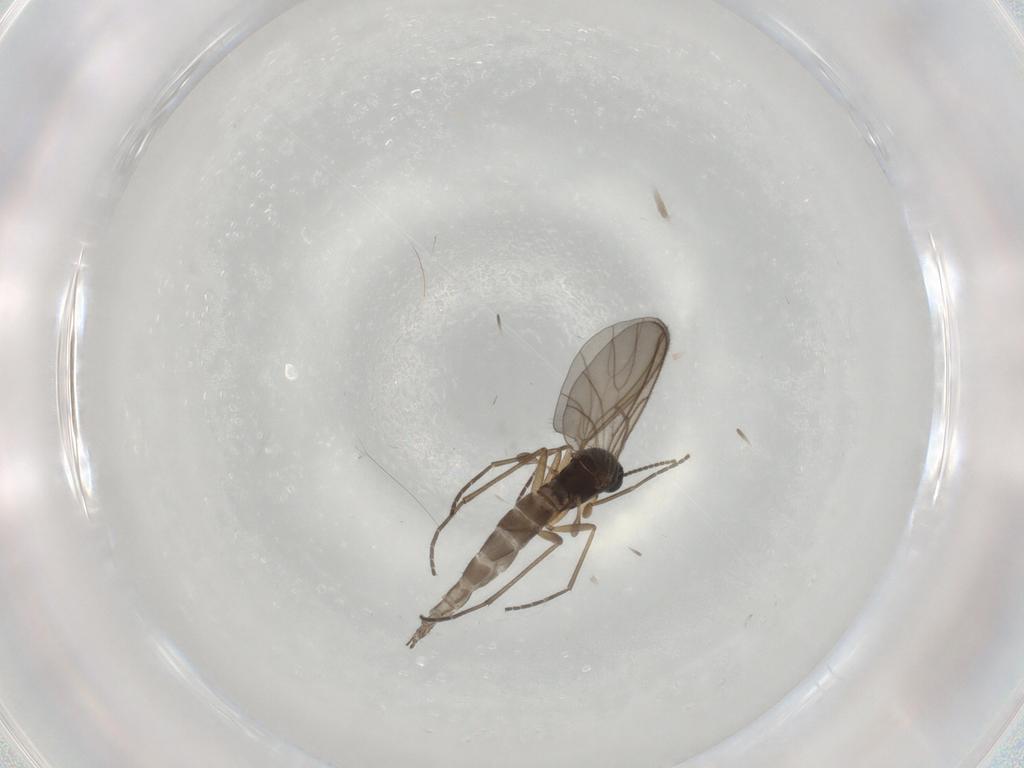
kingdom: Animalia
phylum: Arthropoda
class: Insecta
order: Diptera
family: Sciaridae
